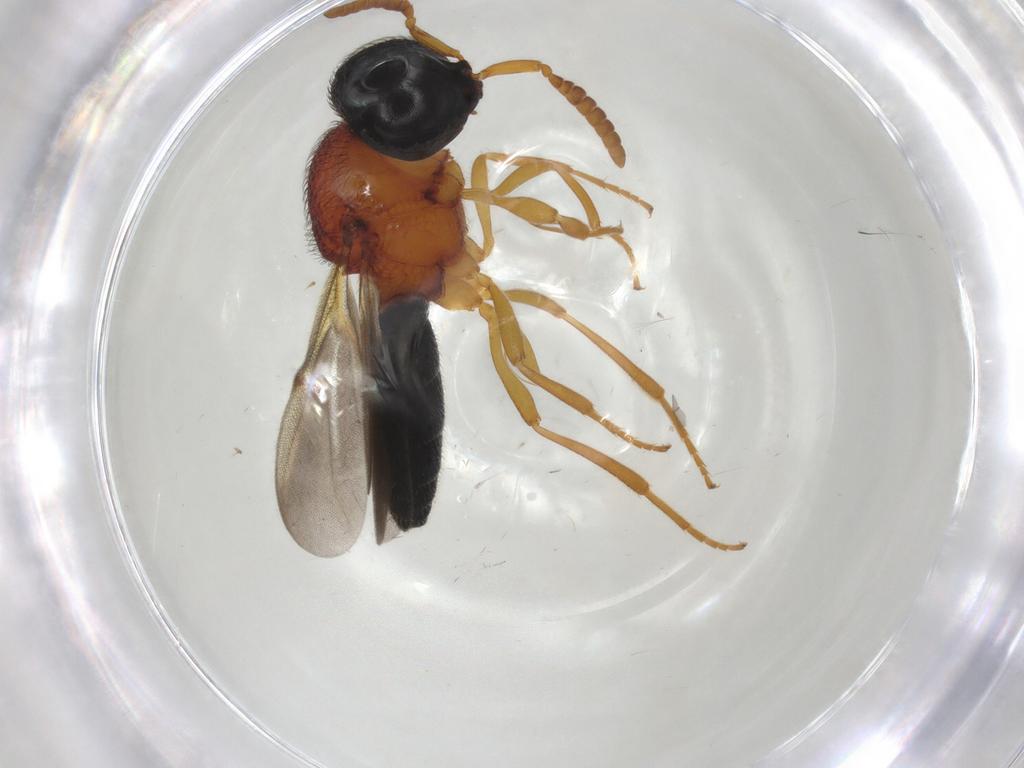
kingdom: Animalia
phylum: Arthropoda
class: Insecta
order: Hymenoptera
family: Scelionidae
